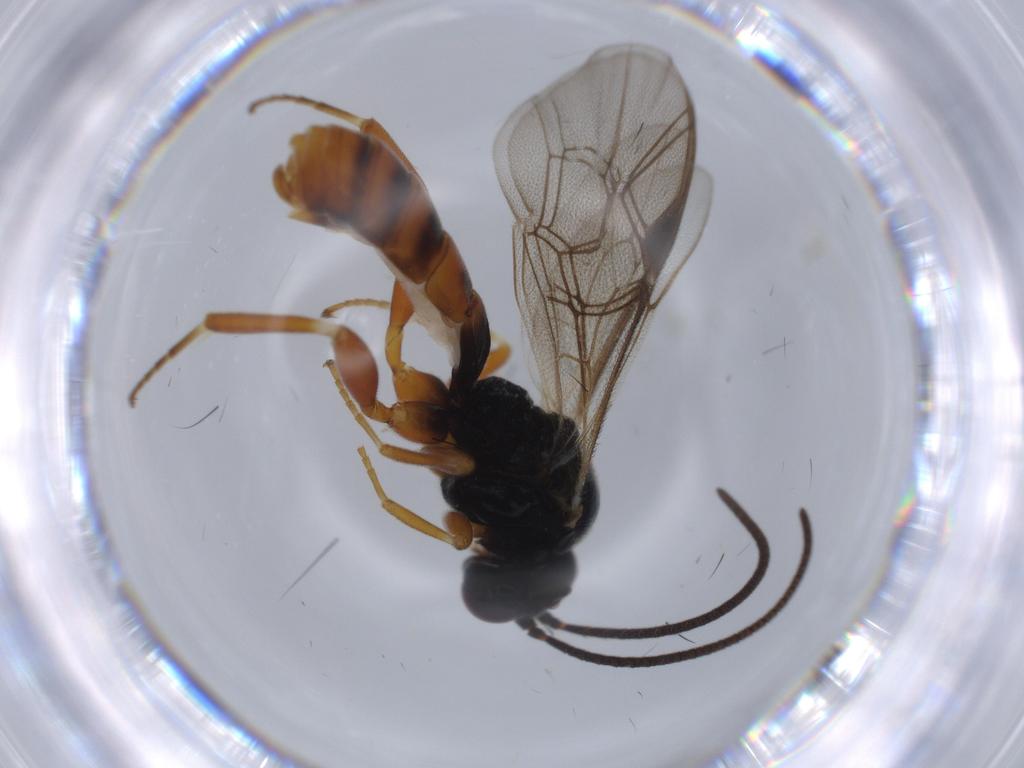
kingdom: Animalia
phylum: Arthropoda
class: Insecta
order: Hymenoptera
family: Ichneumonidae
